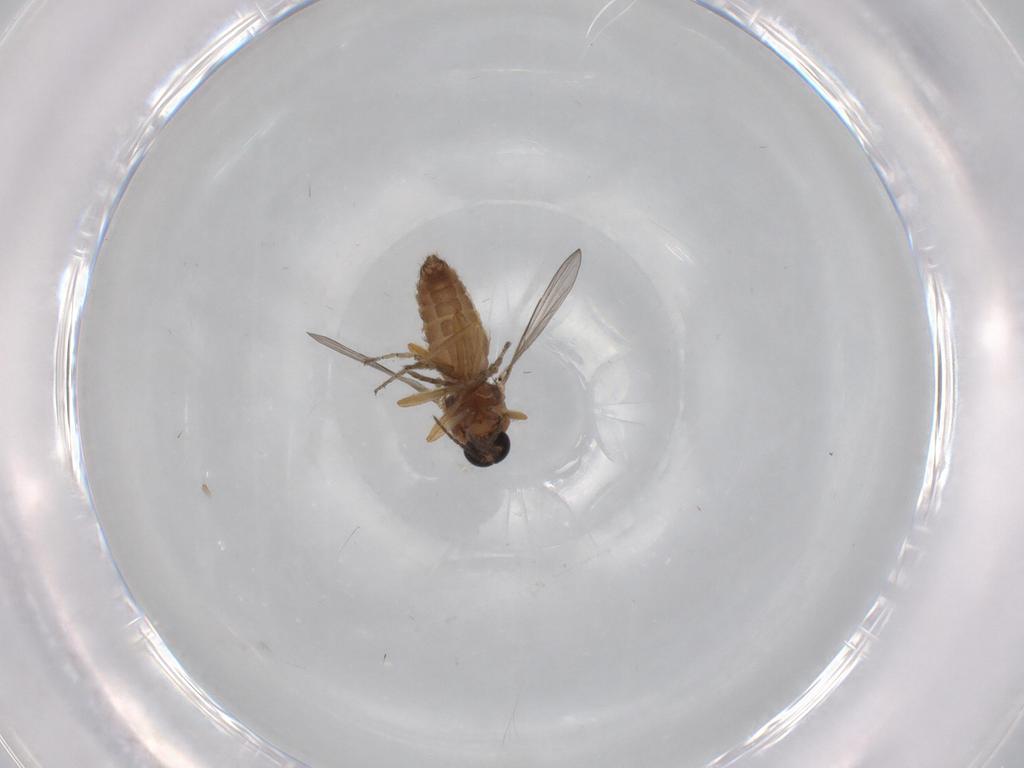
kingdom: Animalia
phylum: Arthropoda
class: Insecta
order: Diptera
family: Ceratopogonidae
